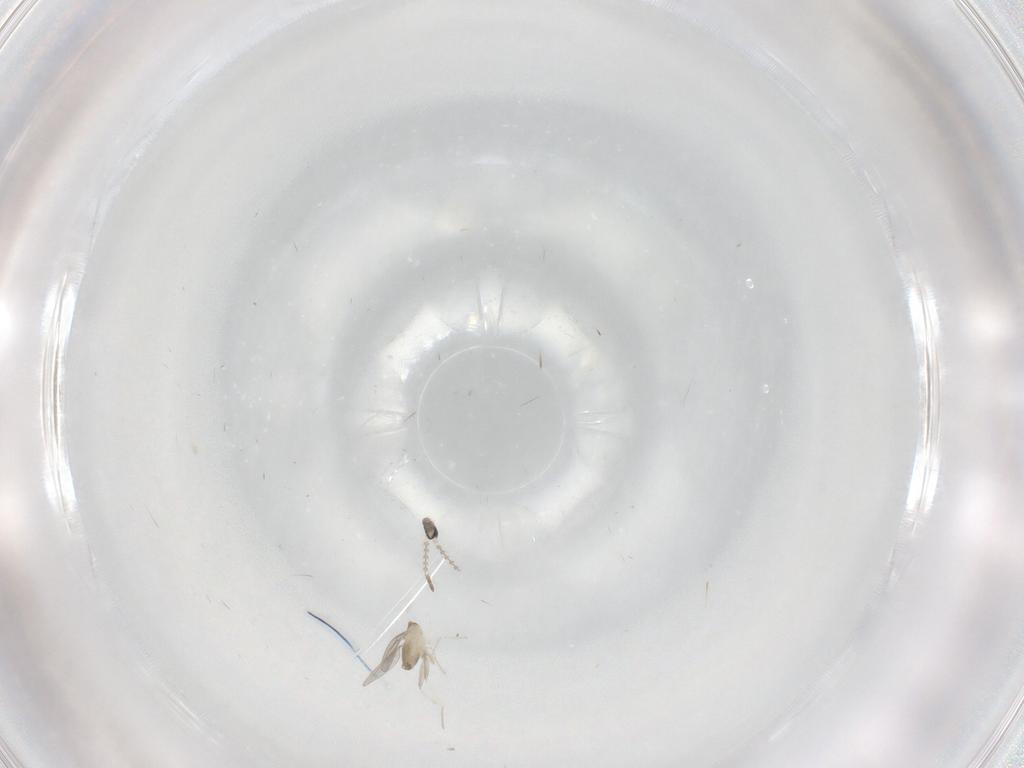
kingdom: Animalia
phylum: Arthropoda
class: Insecta
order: Diptera
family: Cecidomyiidae
